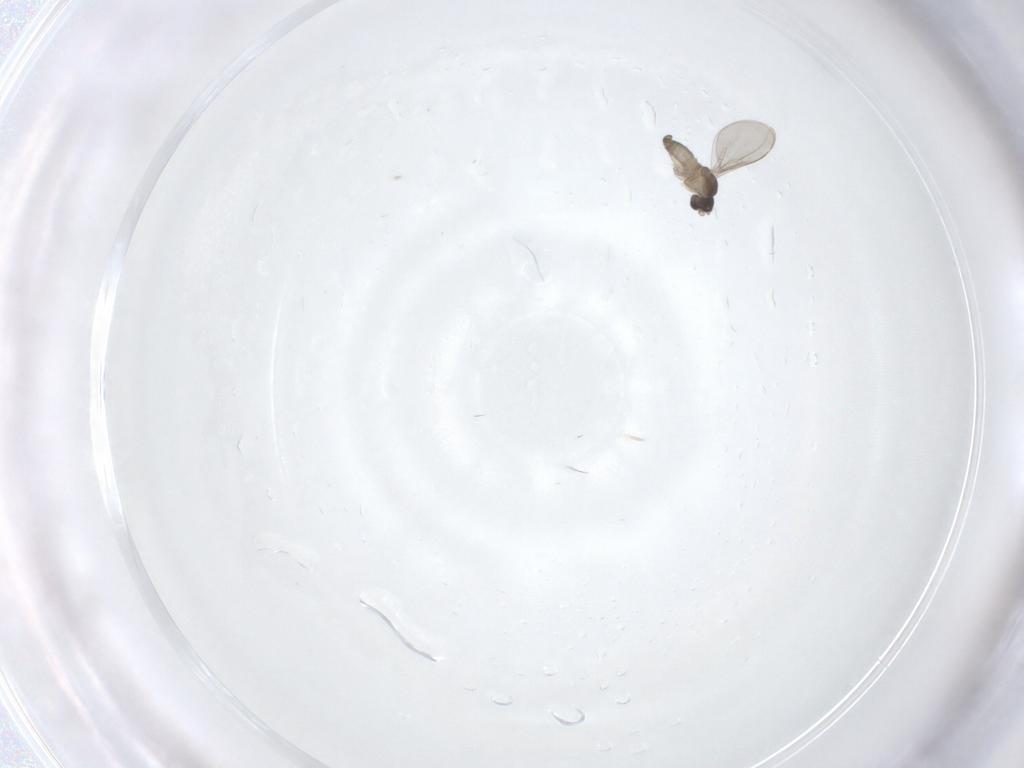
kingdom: Animalia
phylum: Arthropoda
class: Insecta
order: Diptera
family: Cecidomyiidae
